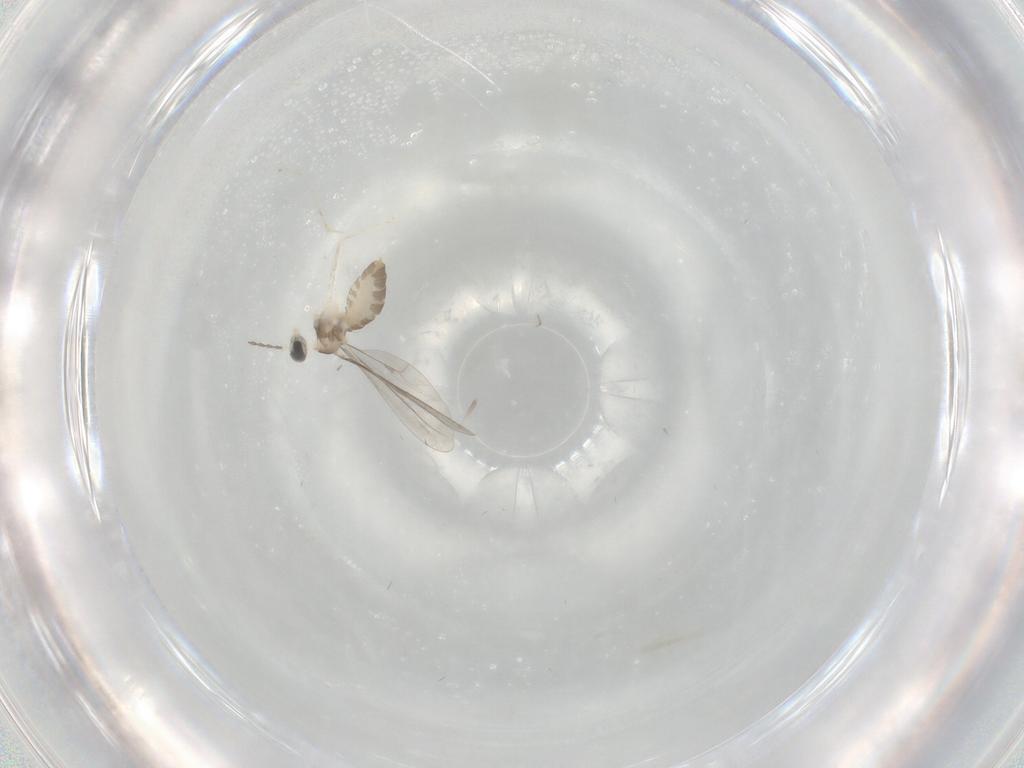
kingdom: Animalia
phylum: Arthropoda
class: Insecta
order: Diptera
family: Cecidomyiidae
